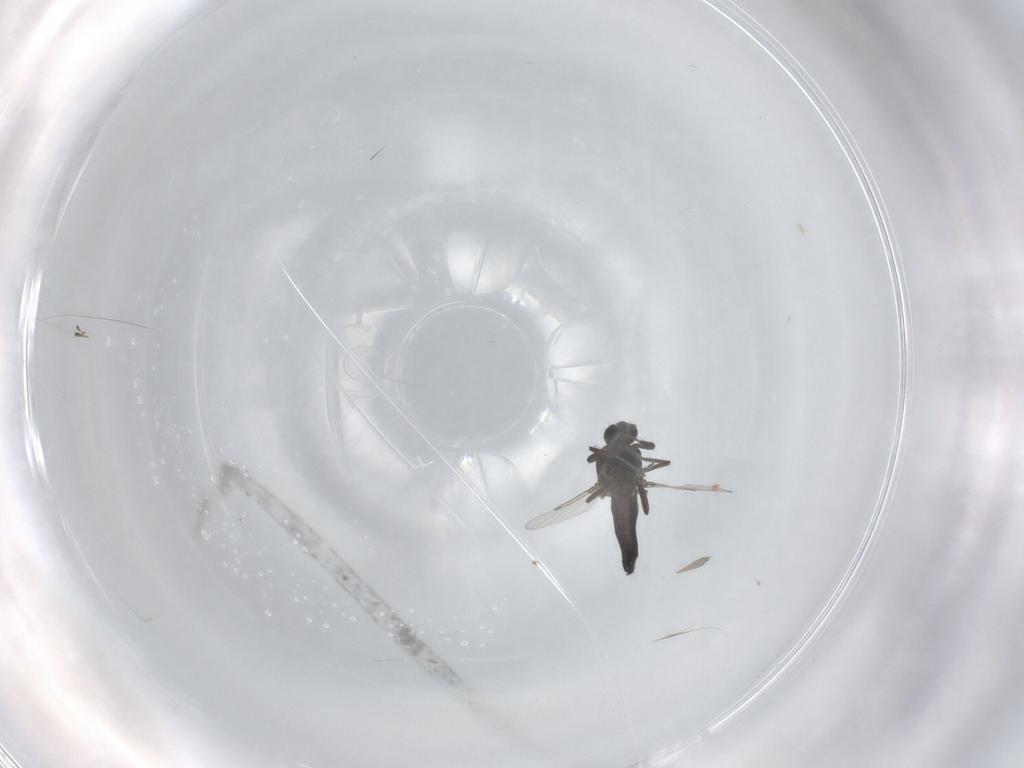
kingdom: Animalia
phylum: Arthropoda
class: Insecta
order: Diptera
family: Ceratopogonidae
